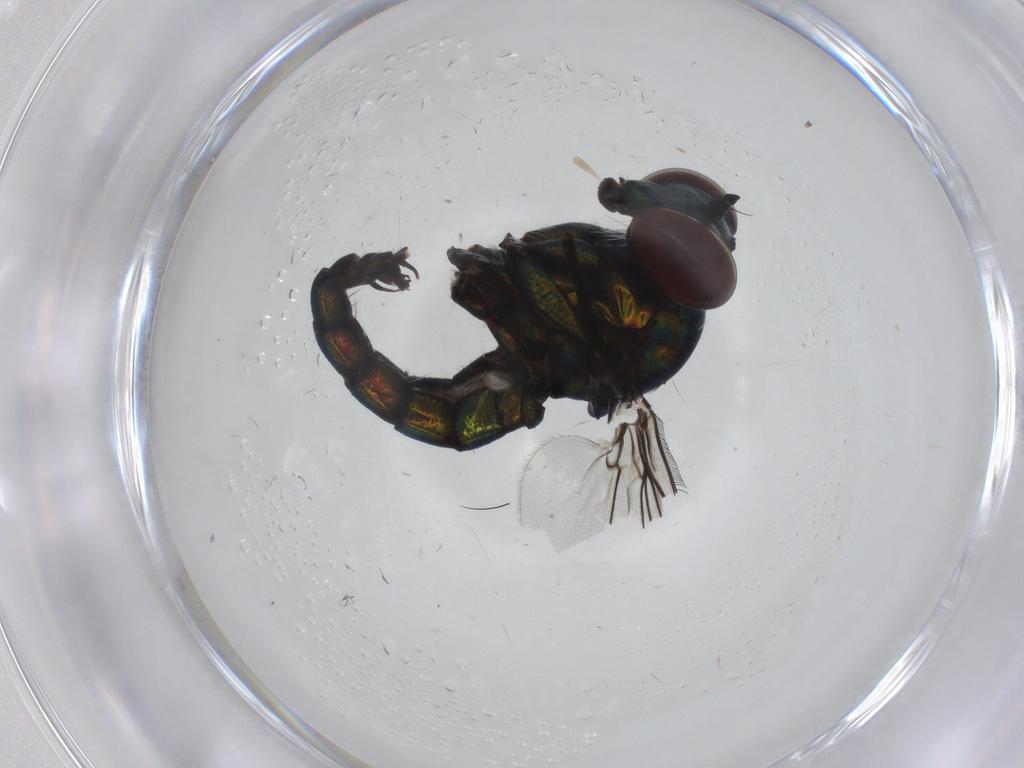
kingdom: Animalia
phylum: Arthropoda
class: Insecta
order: Diptera
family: Dolichopodidae
